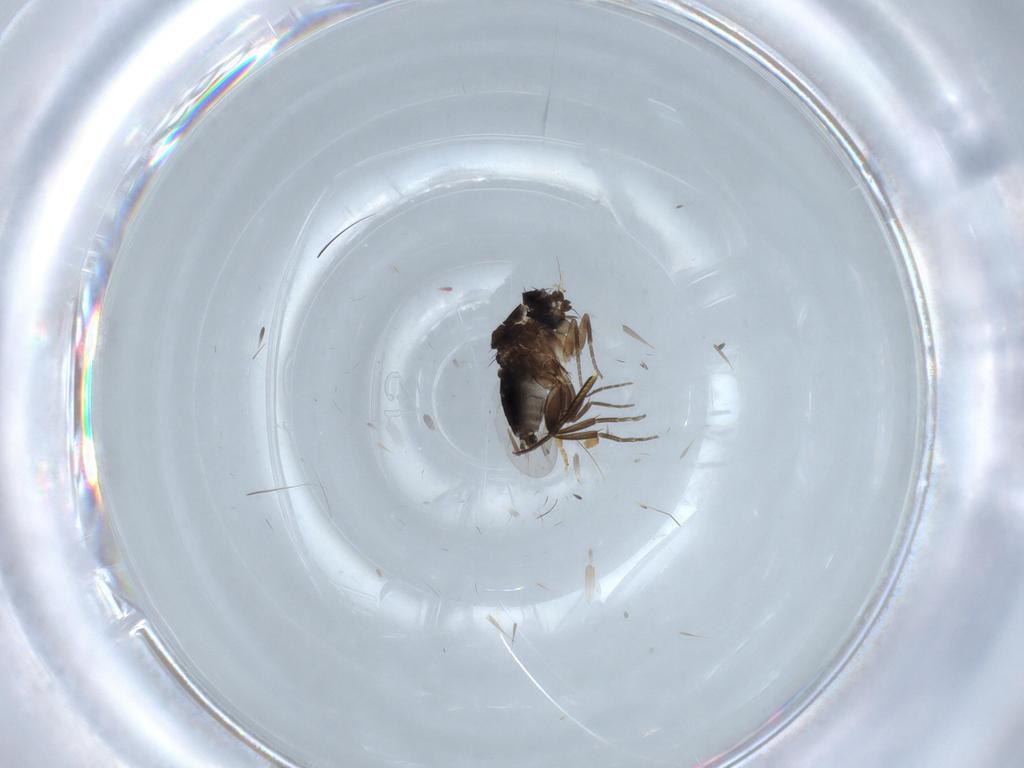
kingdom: Animalia
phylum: Arthropoda
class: Insecta
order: Diptera
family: Phoridae
